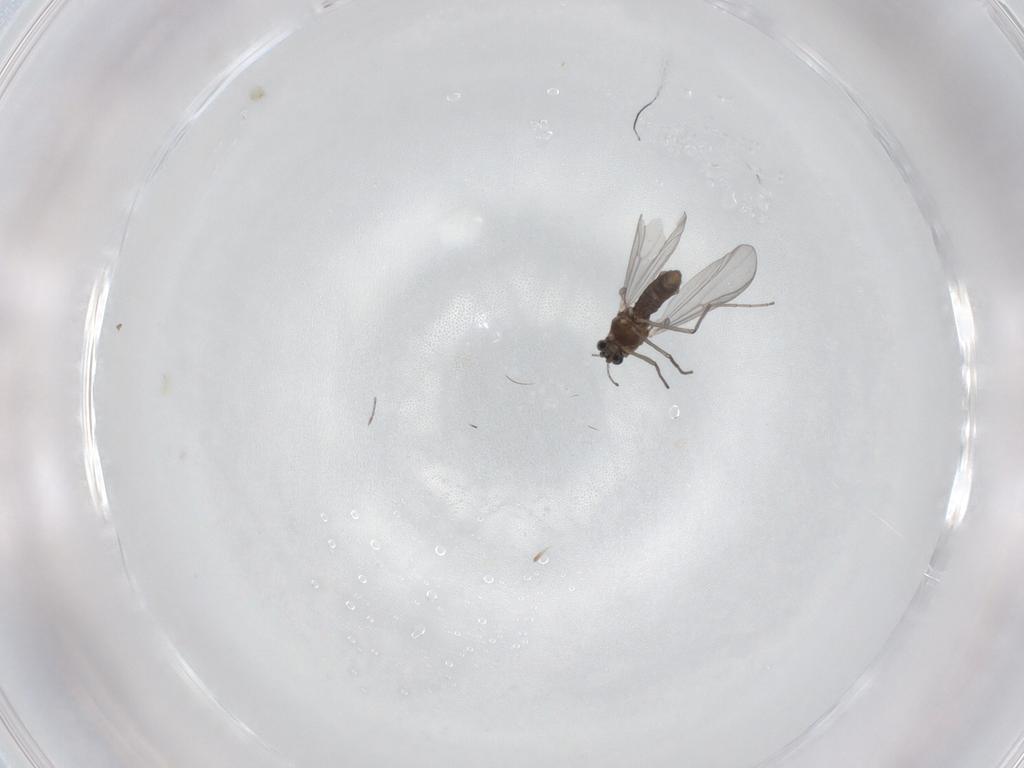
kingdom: Animalia
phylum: Arthropoda
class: Insecta
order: Diptera
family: Chironomidae
